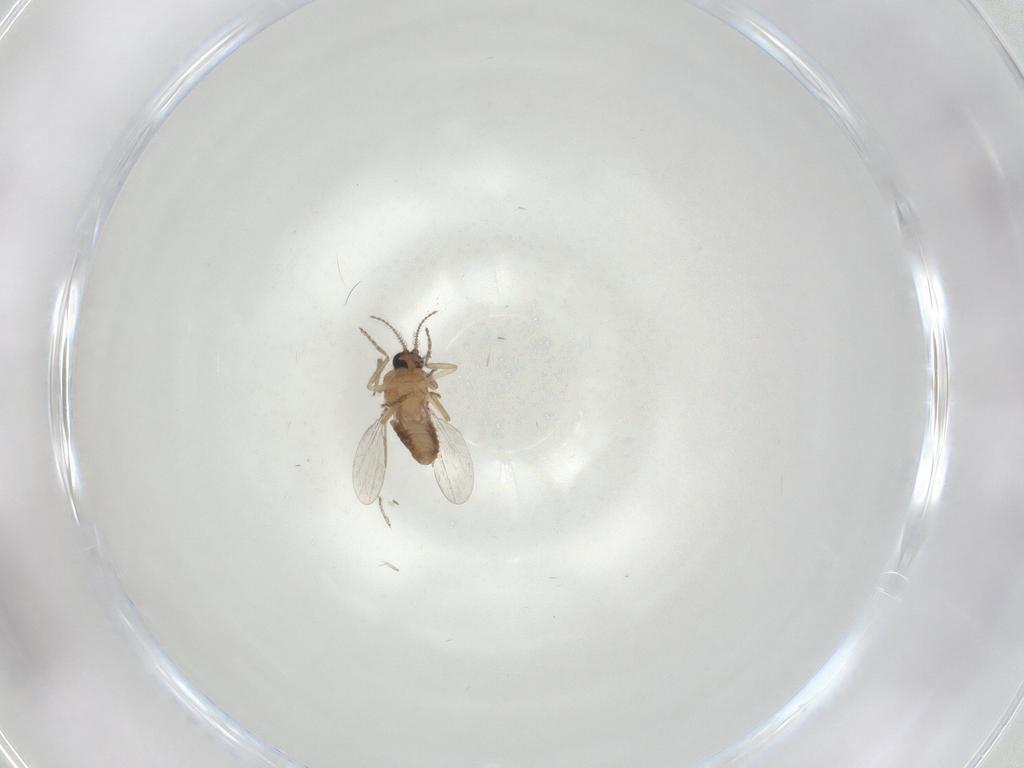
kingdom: Animalia
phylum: Arthropoda
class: Insecta
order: Diptera
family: Ceratopogonidae
